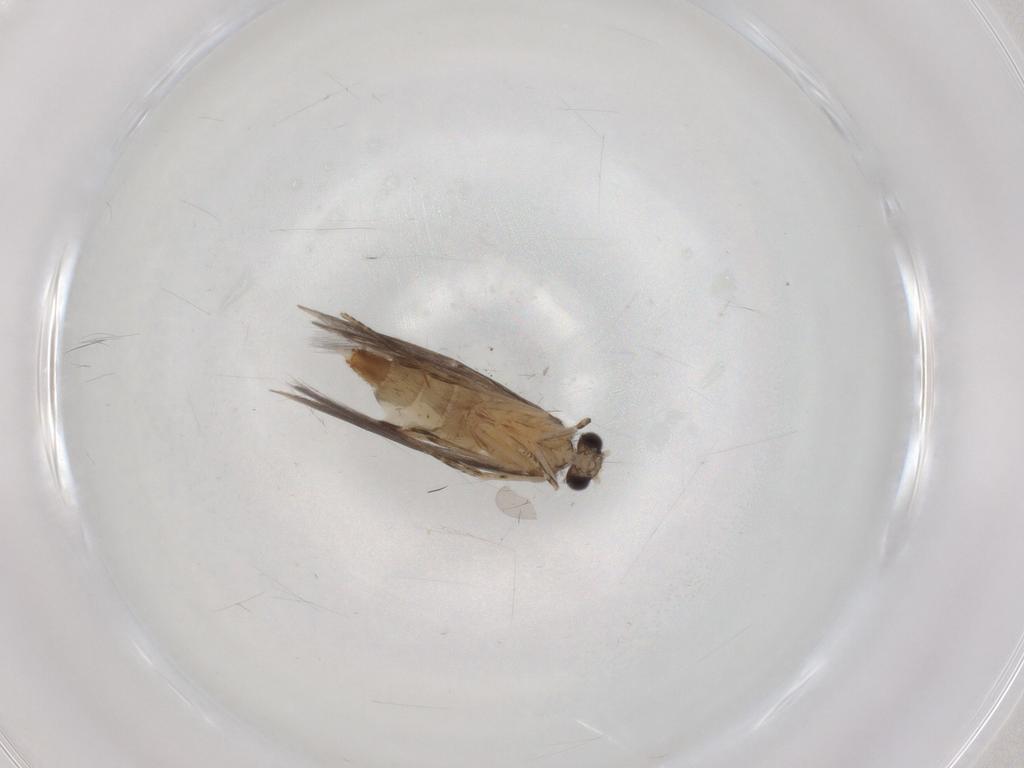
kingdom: Animalia
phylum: Arthropoda
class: Insecta
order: Trichoptera
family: Hydroptilidae
